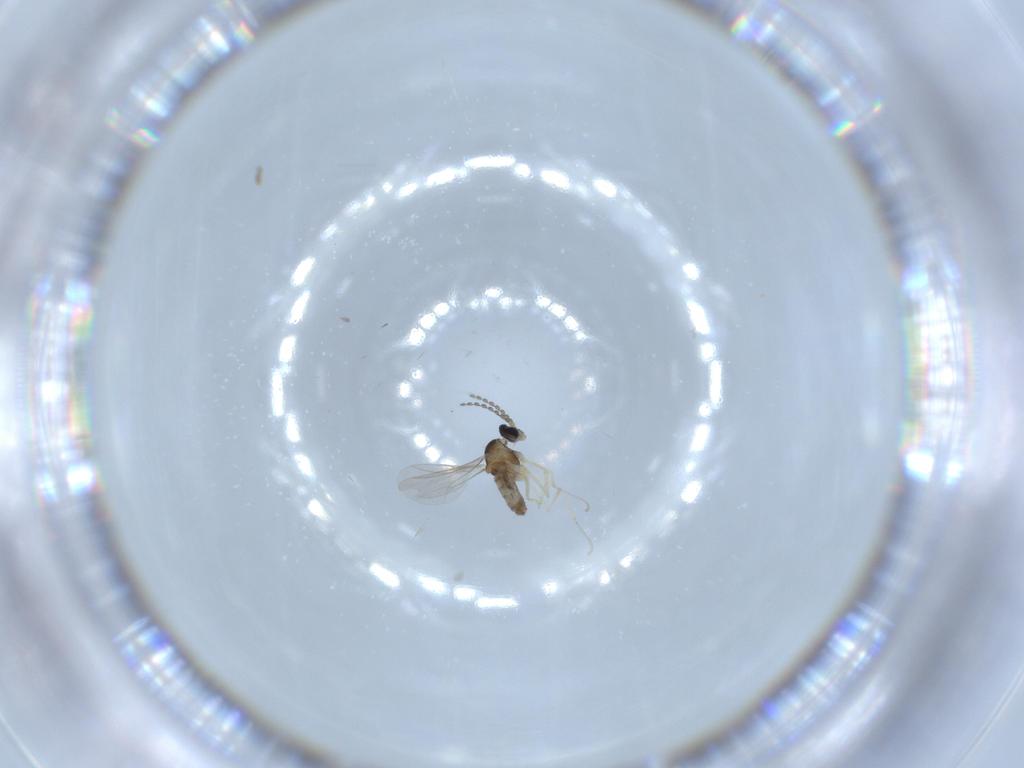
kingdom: Animalia
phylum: Arthropoda
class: Insecta
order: Diptera
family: Cecidomyiidae
